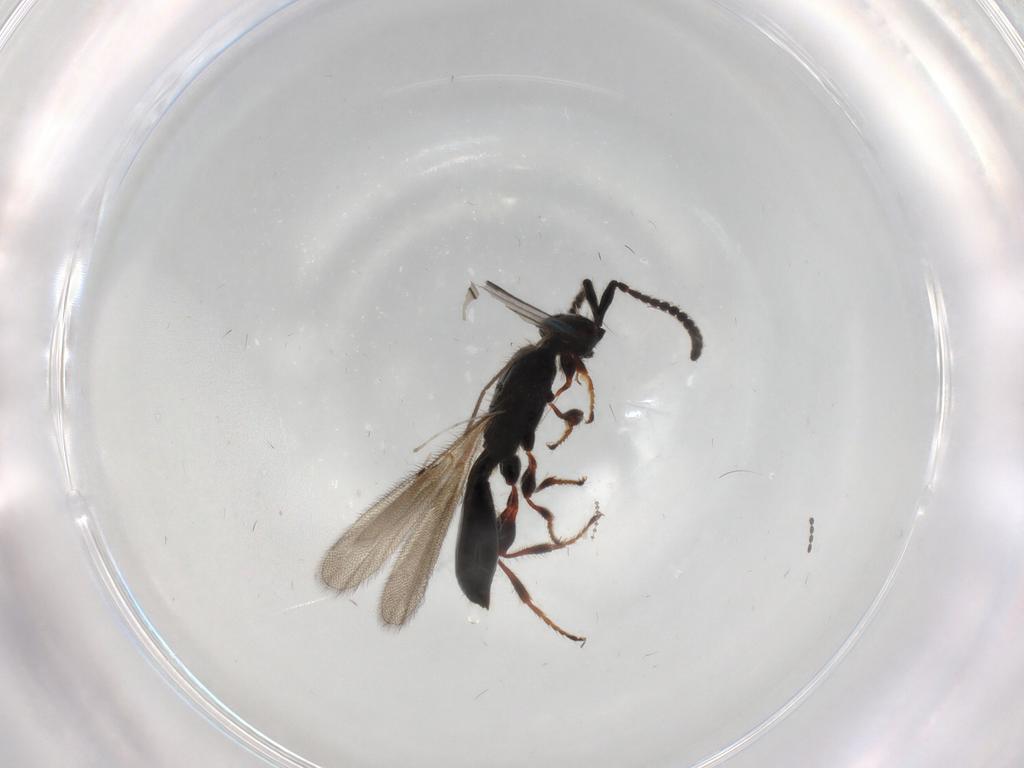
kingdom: Animalia
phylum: Arthropoda
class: Insecta
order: Hymenoptera
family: Diapriidae
